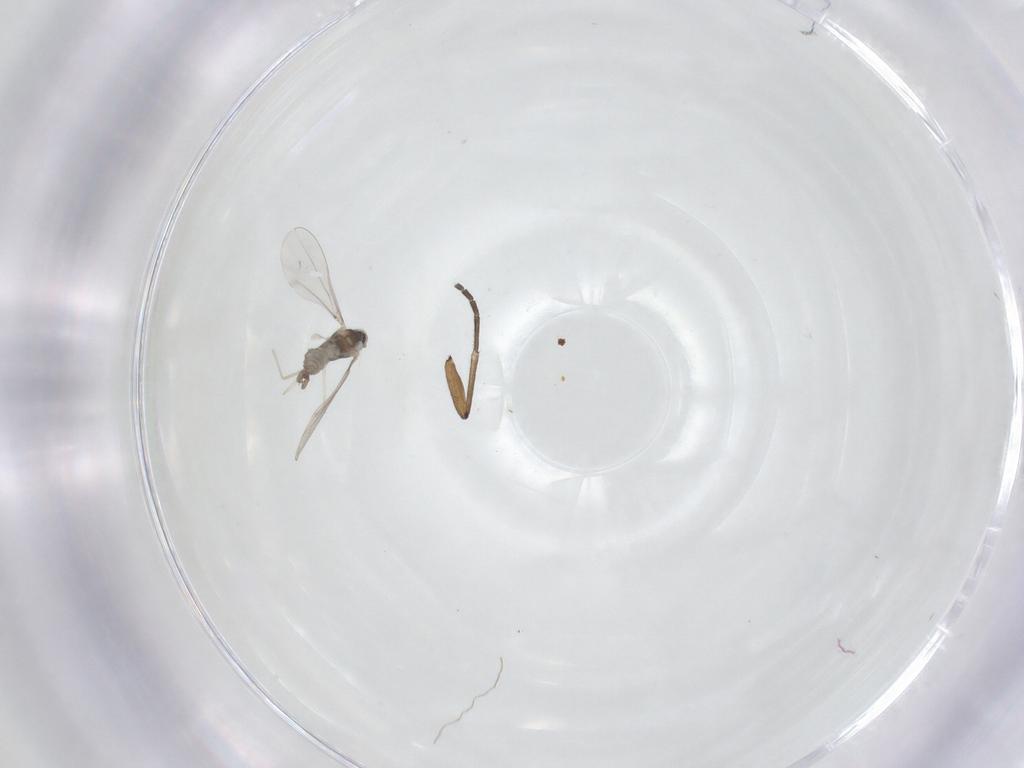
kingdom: Animalia
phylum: Arthropoda
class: Insecta
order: Diptera
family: Cecidomyiidae
